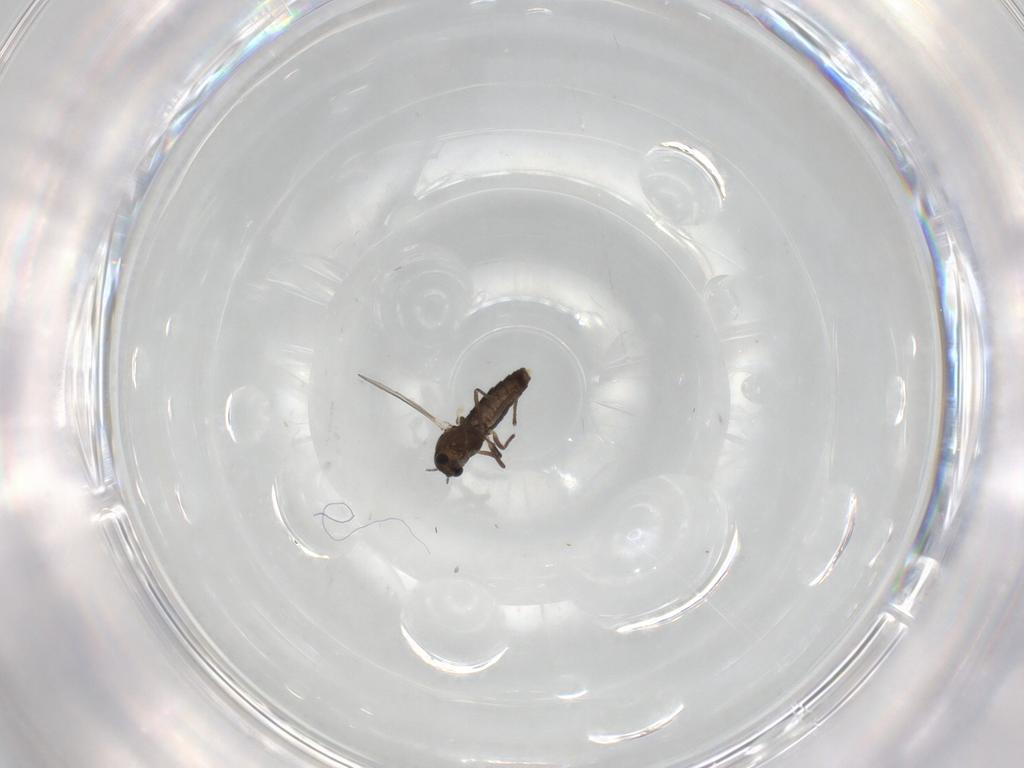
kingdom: Animalia
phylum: Arthropoda
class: Insecta
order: Diptera
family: Chironomidae
